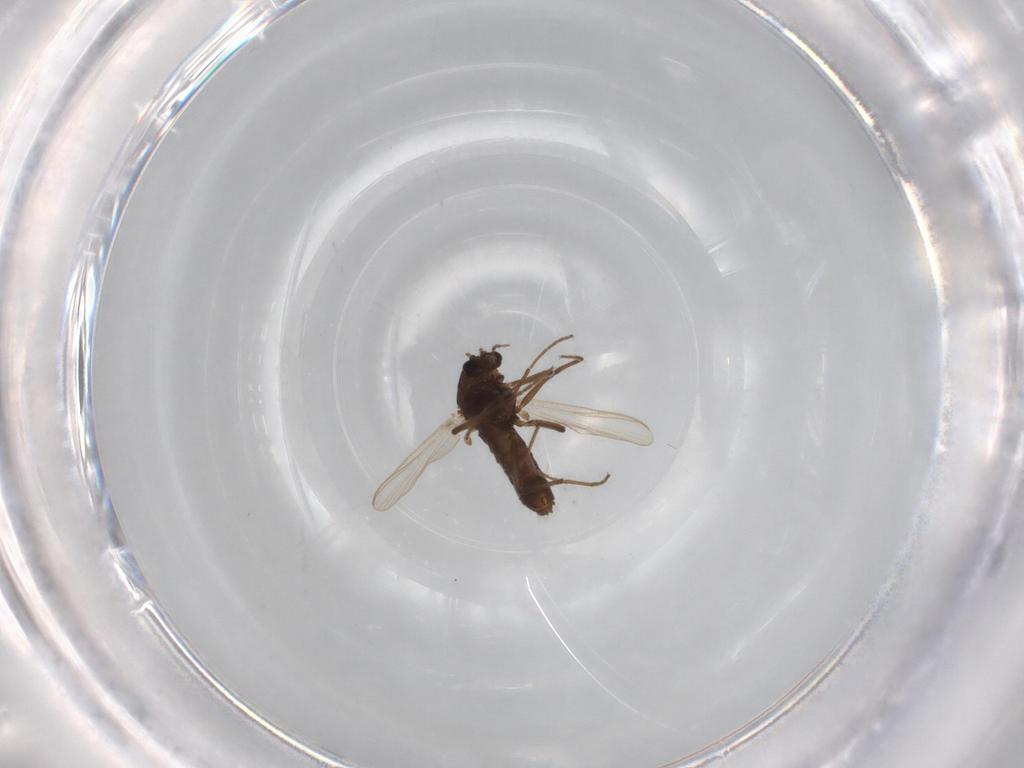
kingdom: Animalia
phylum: Arthropoda
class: Insecta
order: Diptera
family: Chironomidae
